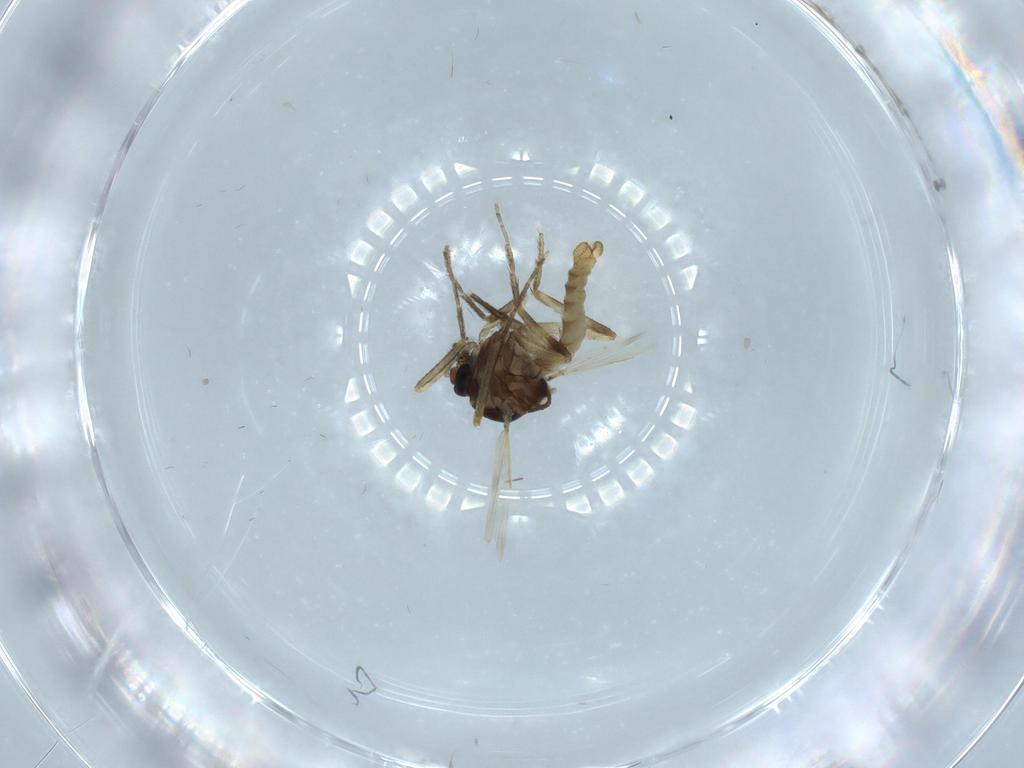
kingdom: Animalia
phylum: Arthropoda
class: Insecta
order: Diptera
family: Ceratopogonidae
